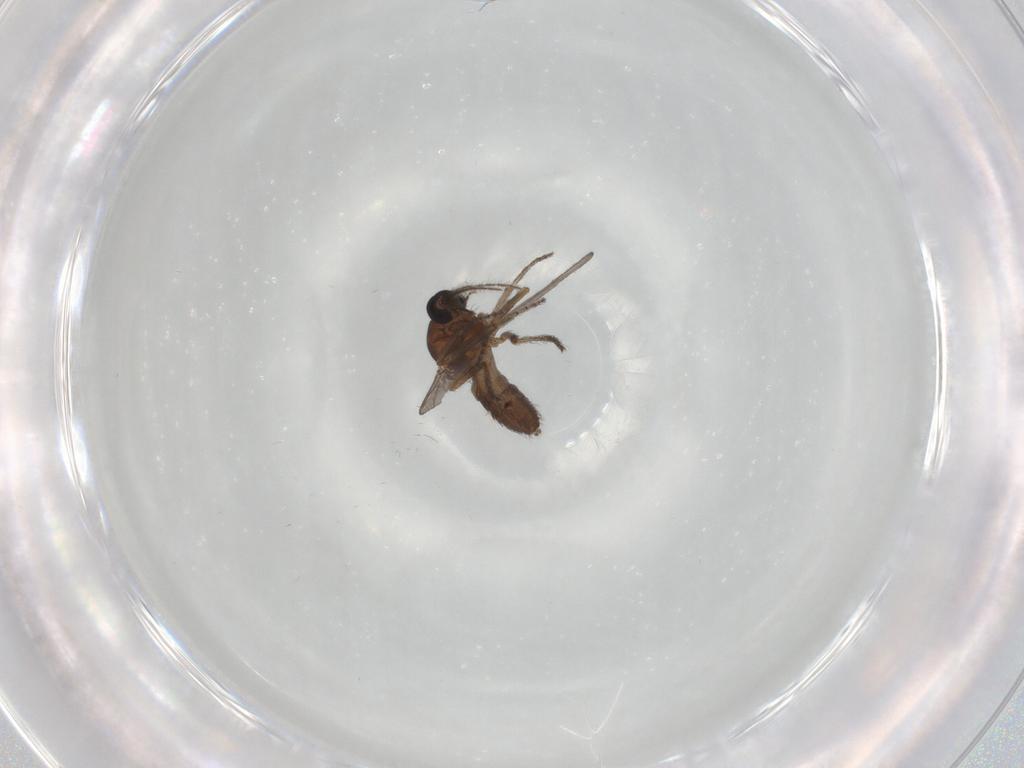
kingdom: Animalia
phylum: Arthropoda
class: Insecta
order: Diptera
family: Ceratopogonidae
